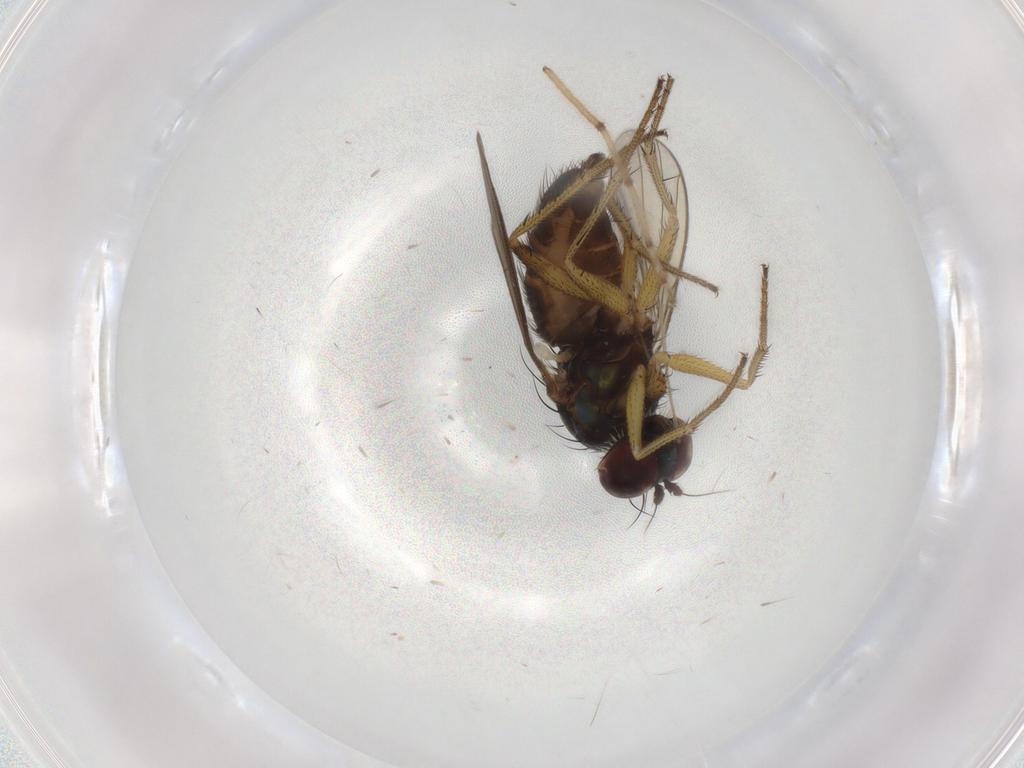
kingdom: Animalia
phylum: Arthropoda
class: Insecta
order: Diptera
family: Dolichopodidae
